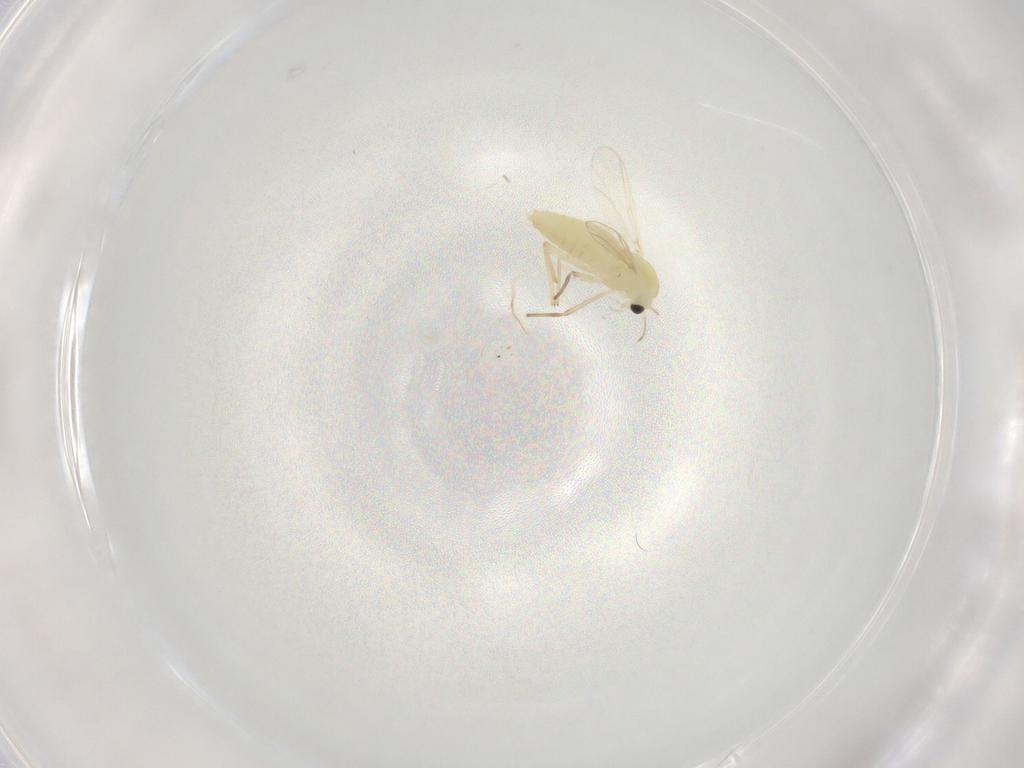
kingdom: Animalia
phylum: Arthropoda
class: Insecta
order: Diptera
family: Chironomidae
